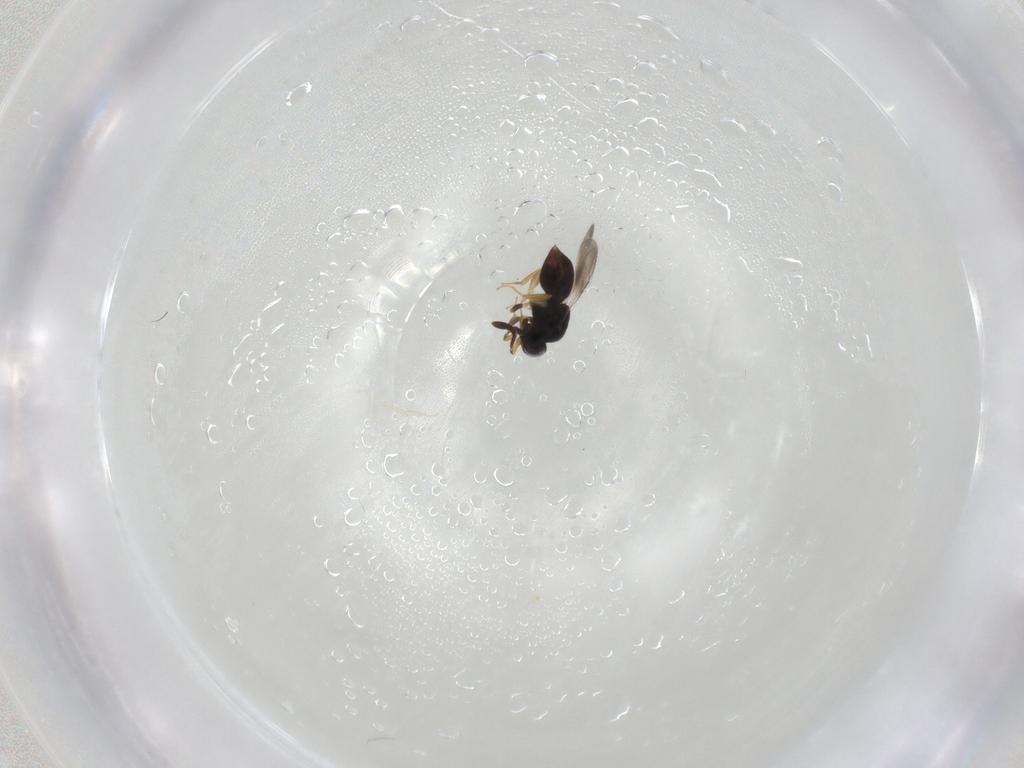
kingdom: Animalia
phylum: Arthropoda
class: Insecta
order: Hymenoptera
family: Ceraphronidae
